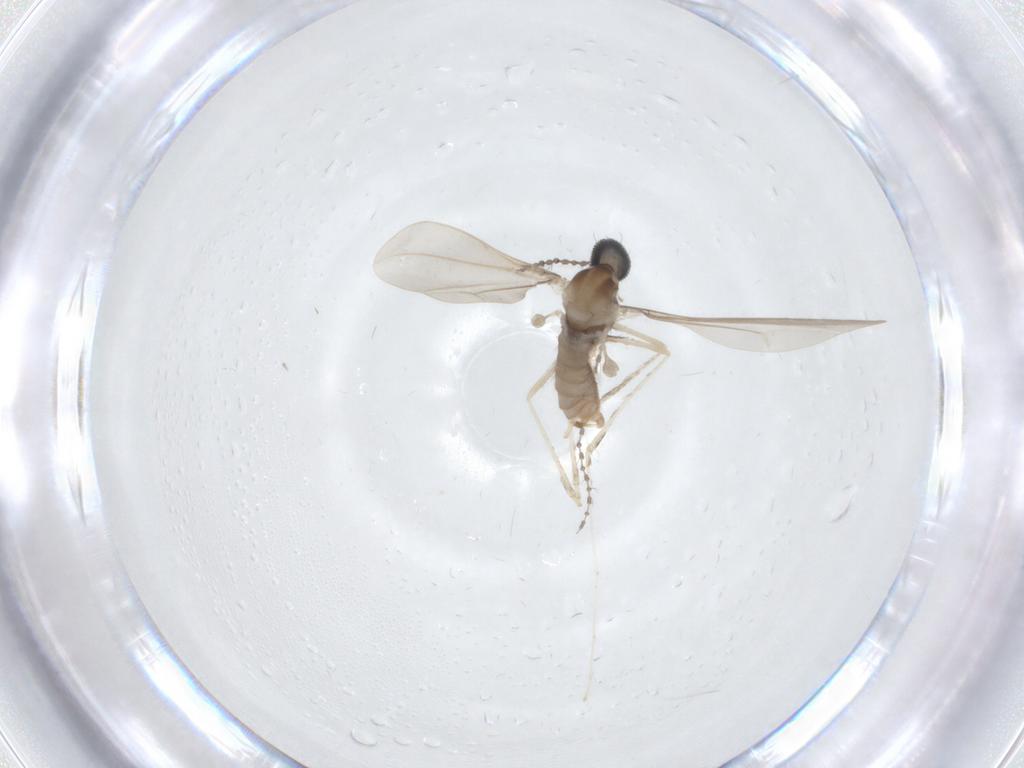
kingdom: Animalia
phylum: Arthropoda
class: Insecta
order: Diptera
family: Cecidomyiidae
